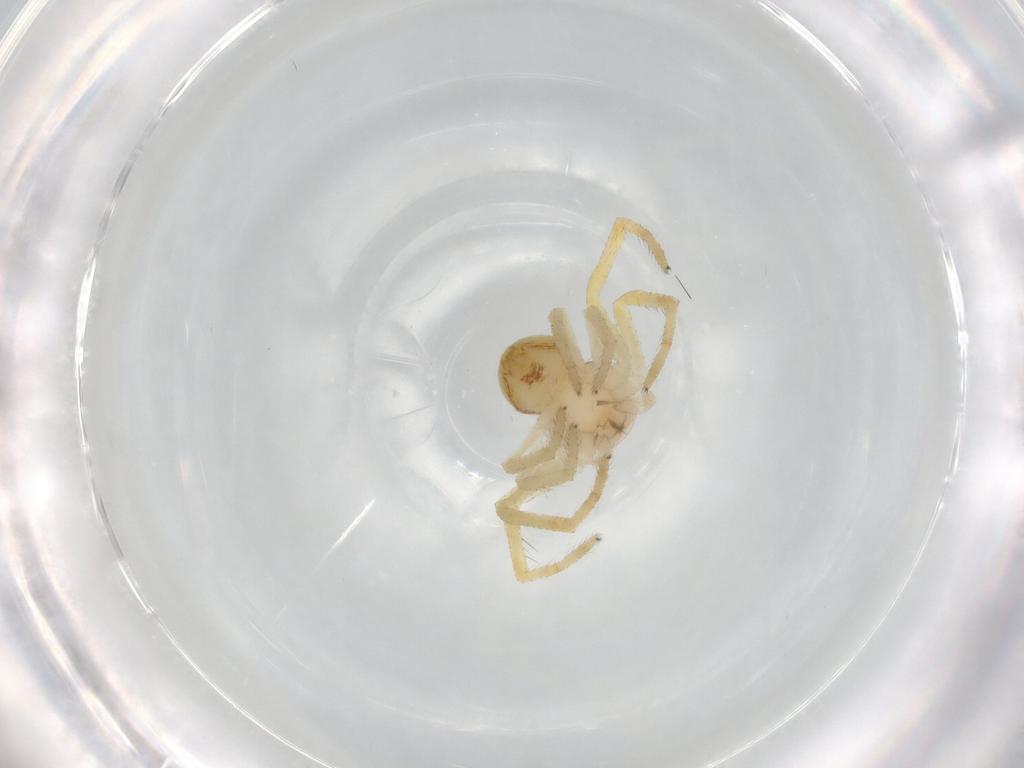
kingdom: Animalia
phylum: Arthropoda
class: Arachnida
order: Araneae
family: Thomisidae
